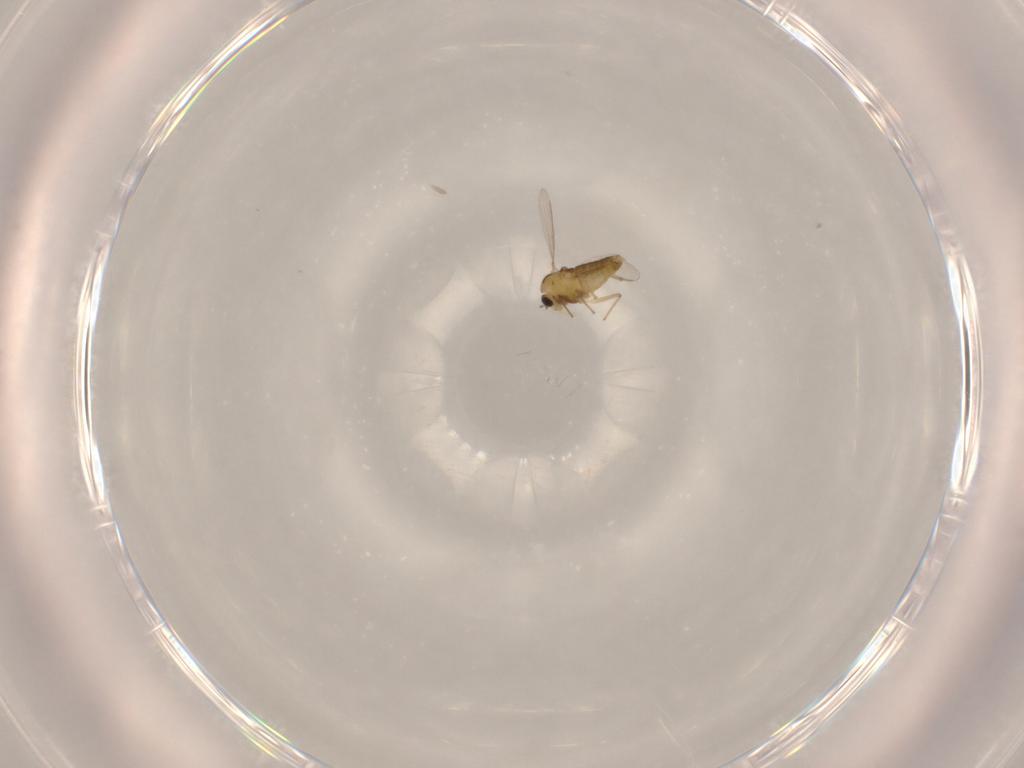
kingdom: Animalia
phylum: Arthropoda
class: Insecta
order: Diptera
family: Chironomidae
